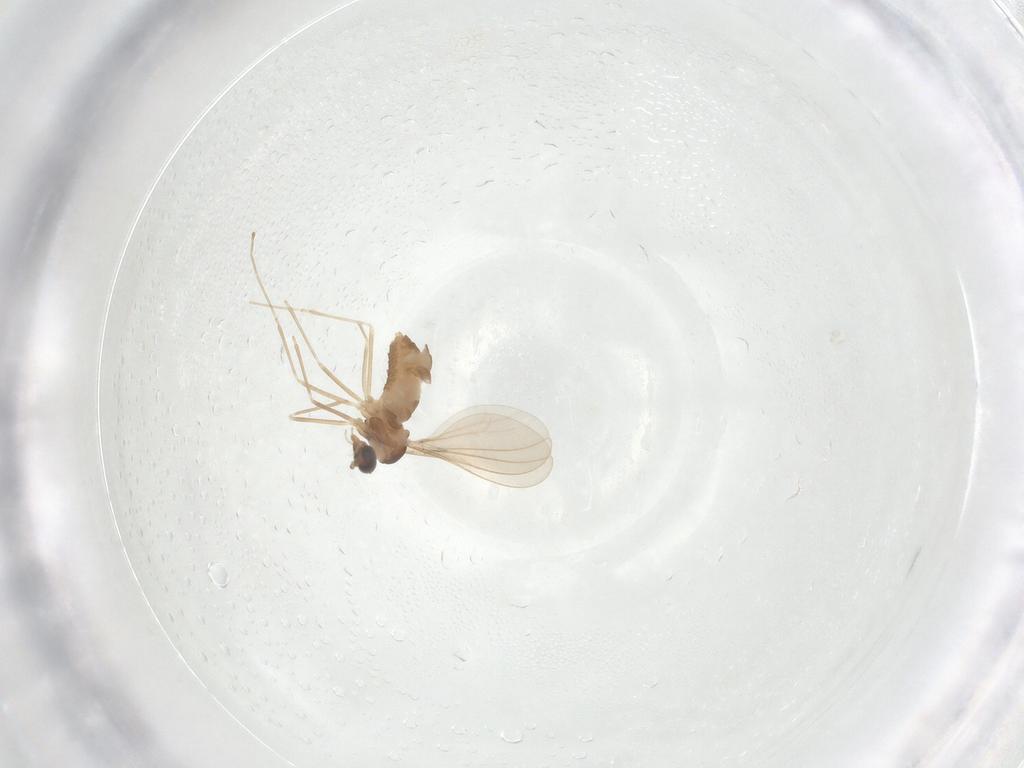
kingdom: Animalia
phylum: Arthropoda
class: Insecta
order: Diptera
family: Cecidomyiidae
